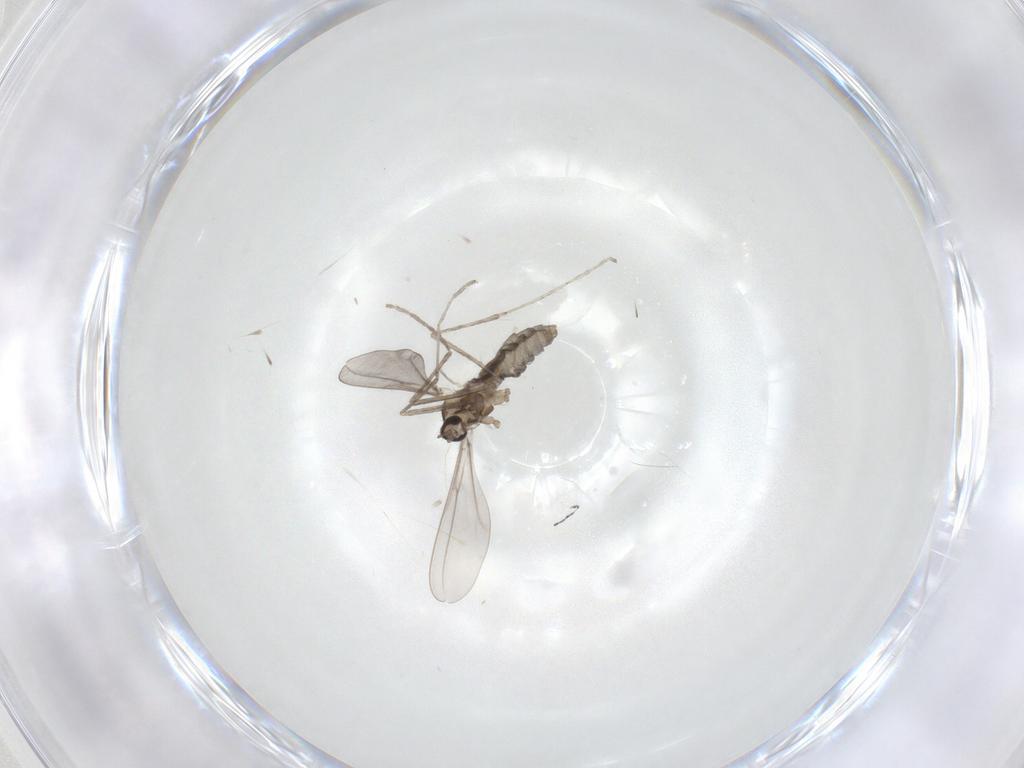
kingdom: Animalia
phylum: Arthropoda
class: Insecta
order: Diptera
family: Cecidomyiidae
